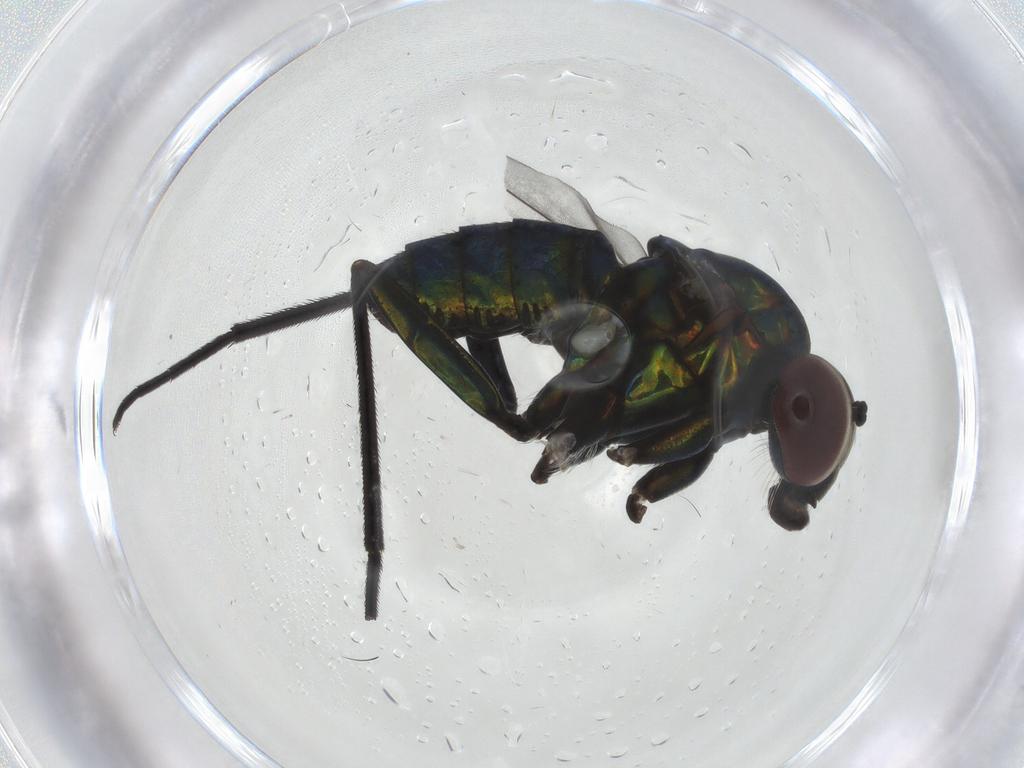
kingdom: Animalia
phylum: Arthropoda
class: Insecta
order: Diptera
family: Dolichopodidae
